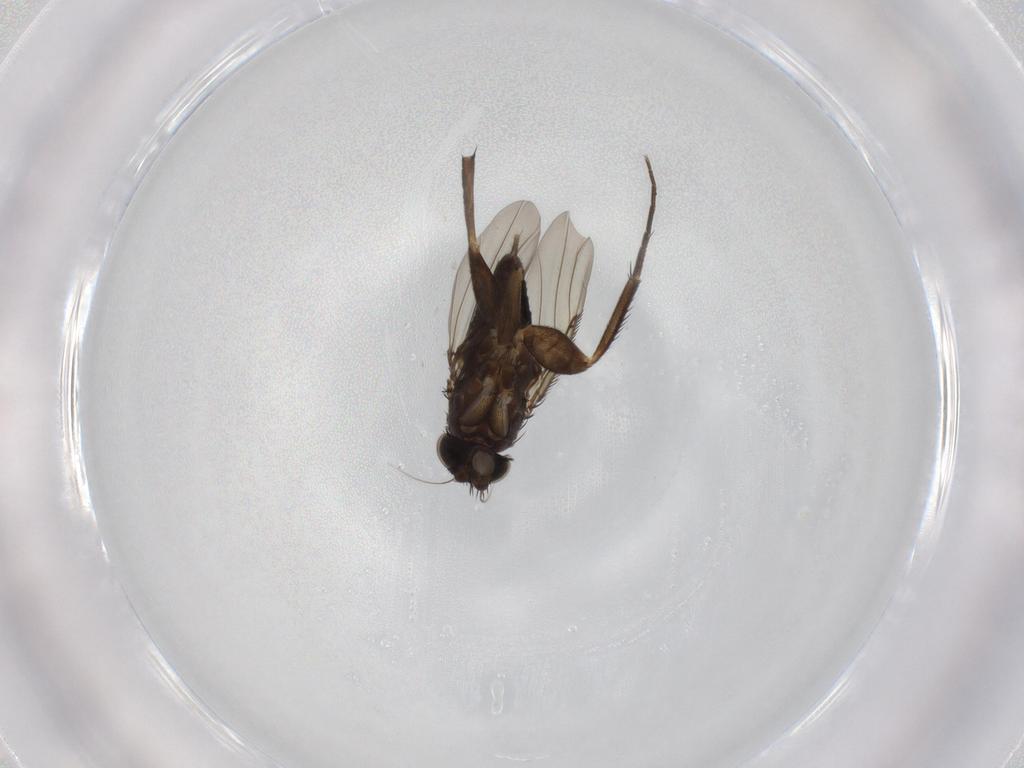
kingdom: Animalia
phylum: Arthropoda
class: Insecta
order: Diptera
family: Phoridae
